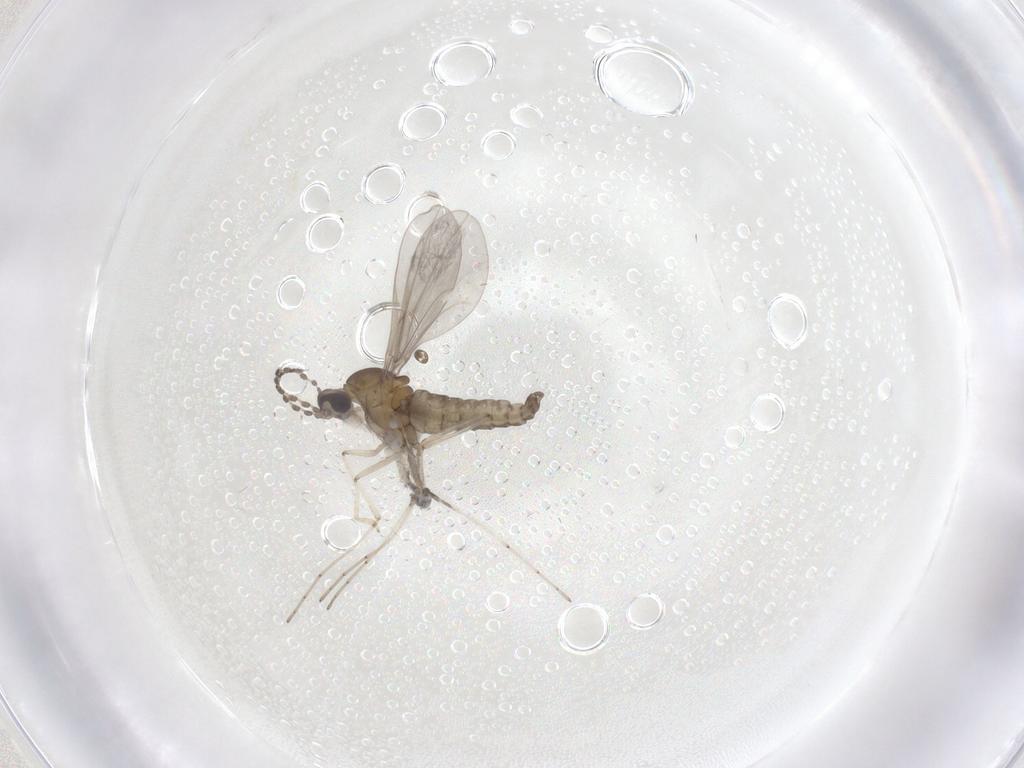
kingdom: Animalia
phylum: Arthropoda
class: Insecta
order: Diptera
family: Cecidomyiidae
